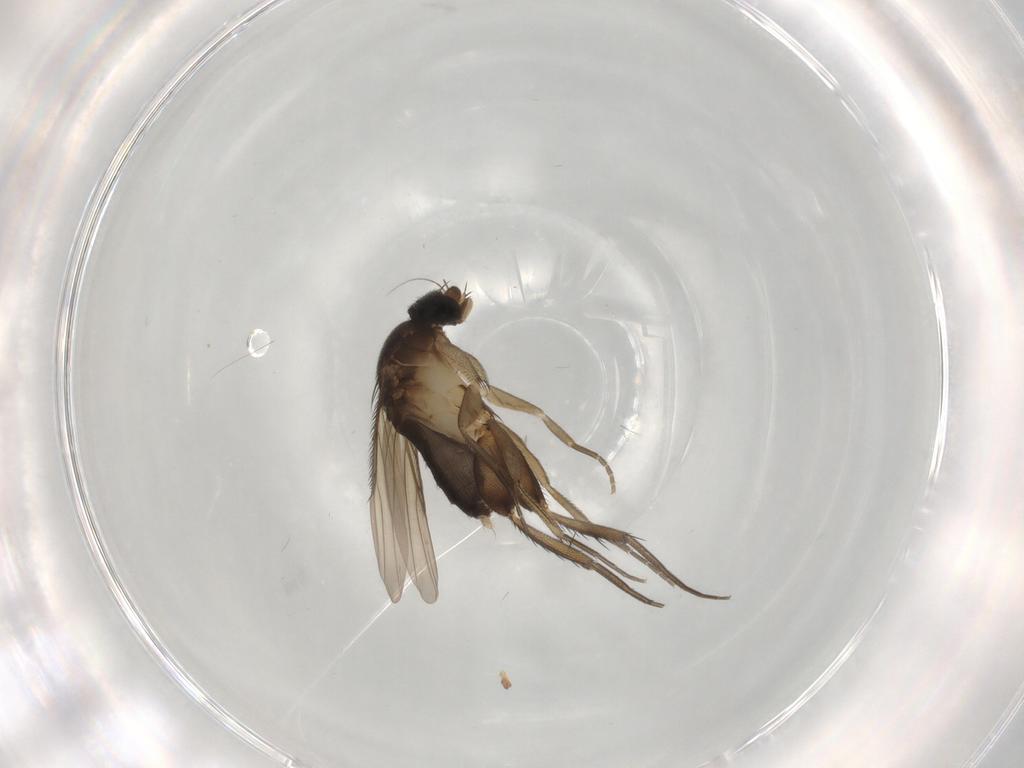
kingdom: Animalia
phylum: Arthropoda
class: Insecta
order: Diptera
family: Phoridae
